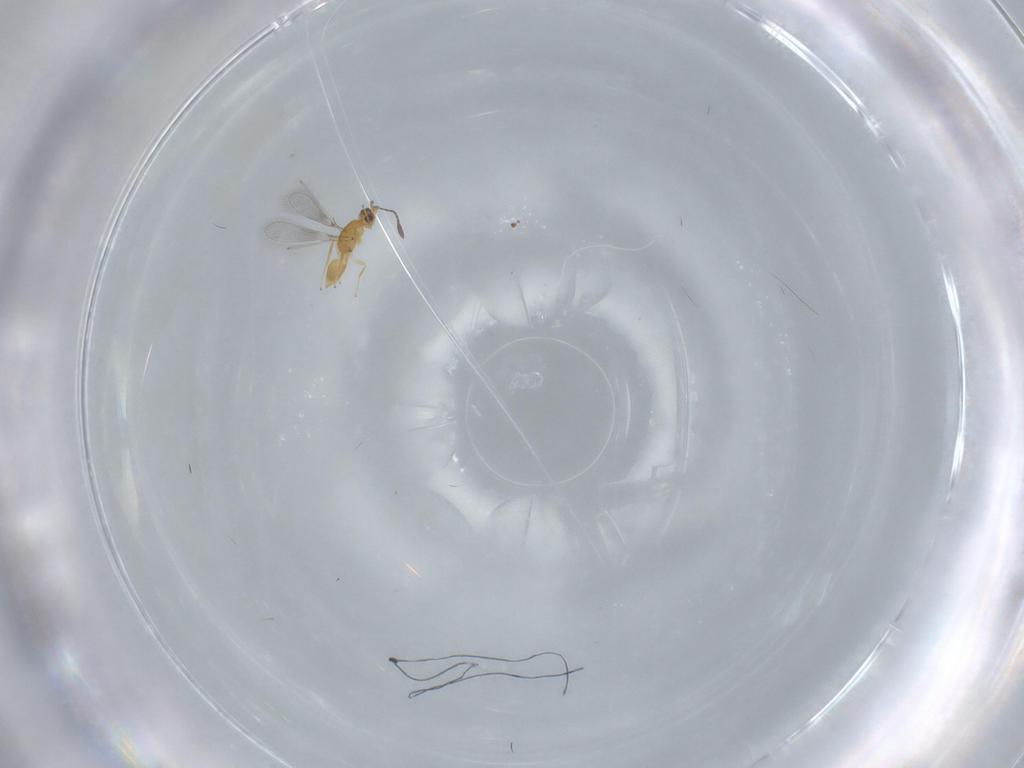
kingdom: Animalia
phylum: Arthropoda
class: Insecta
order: Hymenoptera
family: Mymaridae
